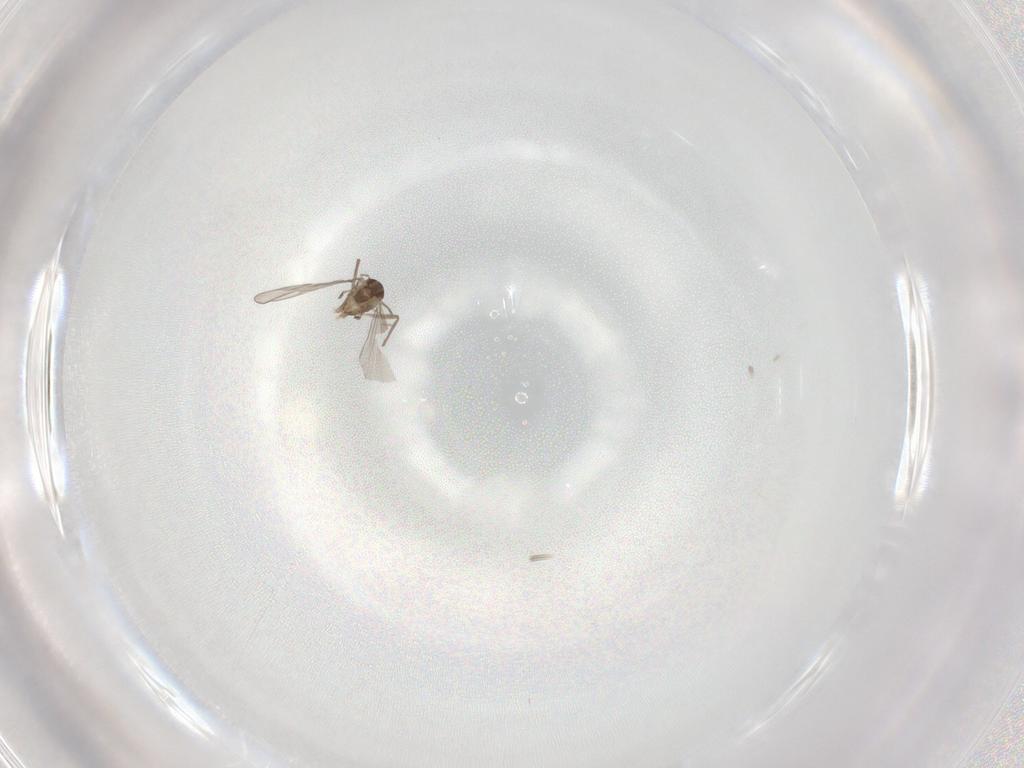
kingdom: Animalia
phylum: Arthropoda
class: Insecta
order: Diptera
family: Chironomidae
